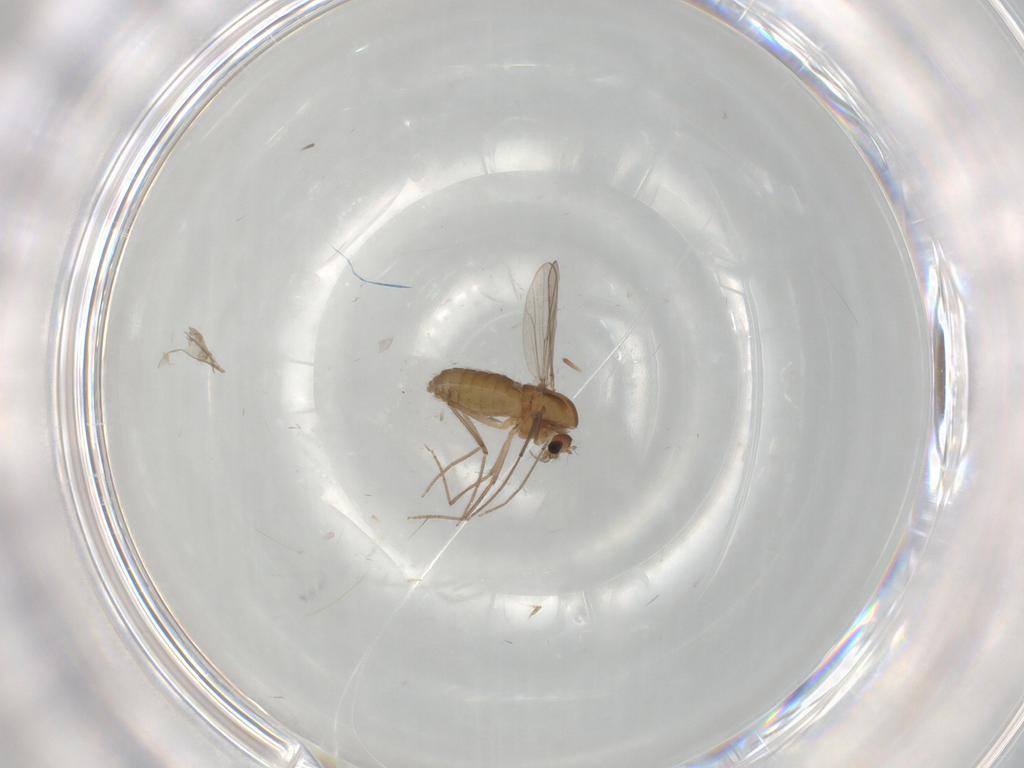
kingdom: Animalia
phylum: Arthropoda
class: Insecta
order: Diptera
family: Chironomidae
